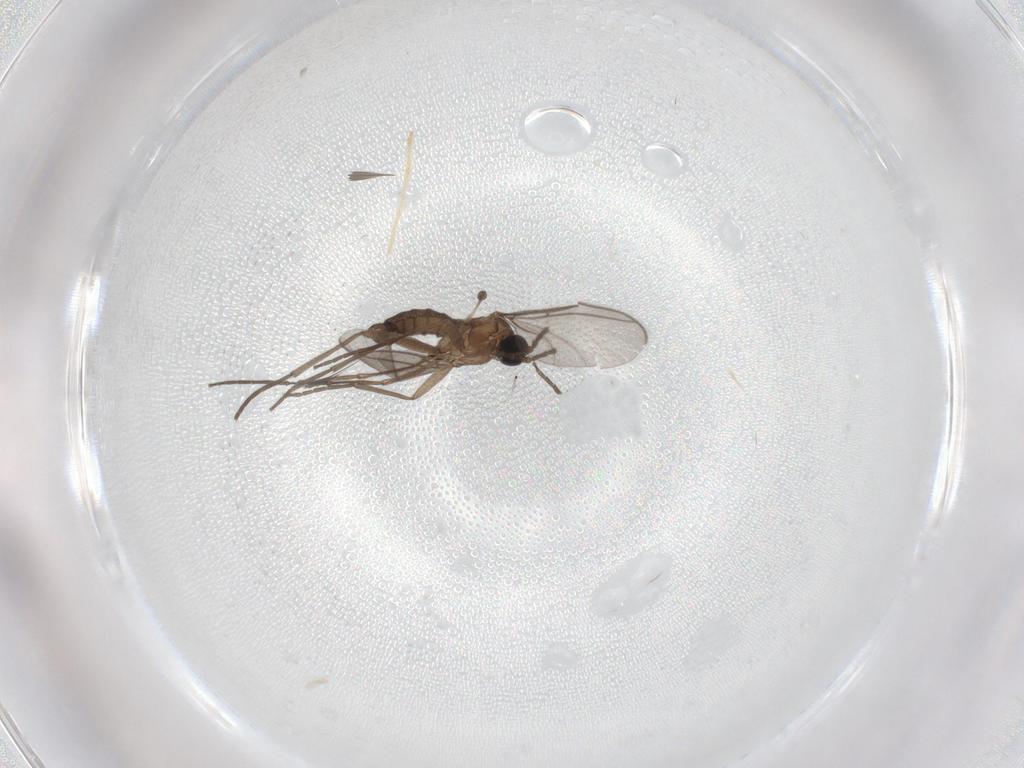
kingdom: Animalia
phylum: Arthropoda
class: Insecta
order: Diptera
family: Sciaridae
